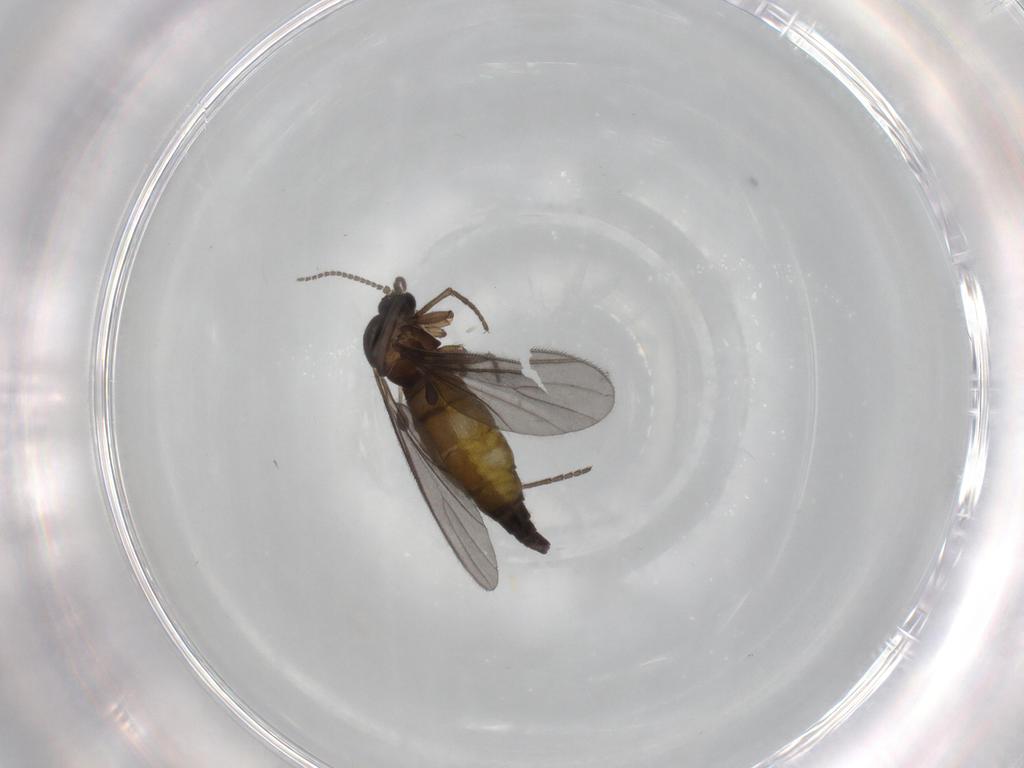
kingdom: Animalia
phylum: Arthropoda
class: Insecta
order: Diptera
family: Sciaridae
